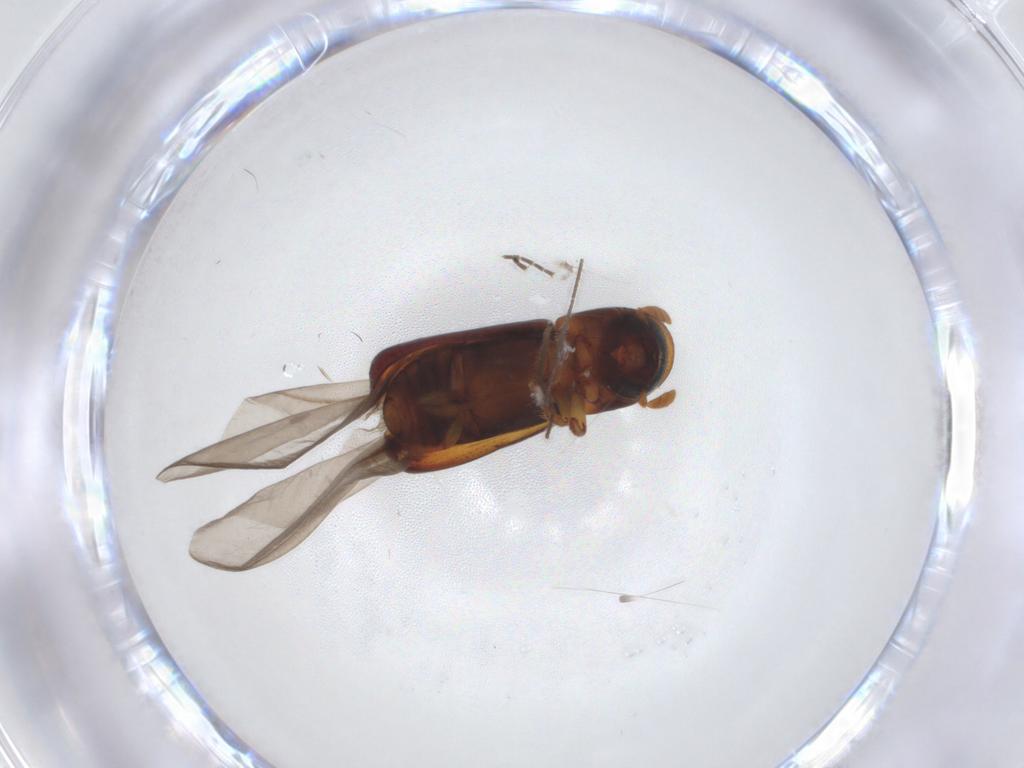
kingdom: Animalia
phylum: Arthropoda
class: Insecta
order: Coleoptera
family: Curculionidae
